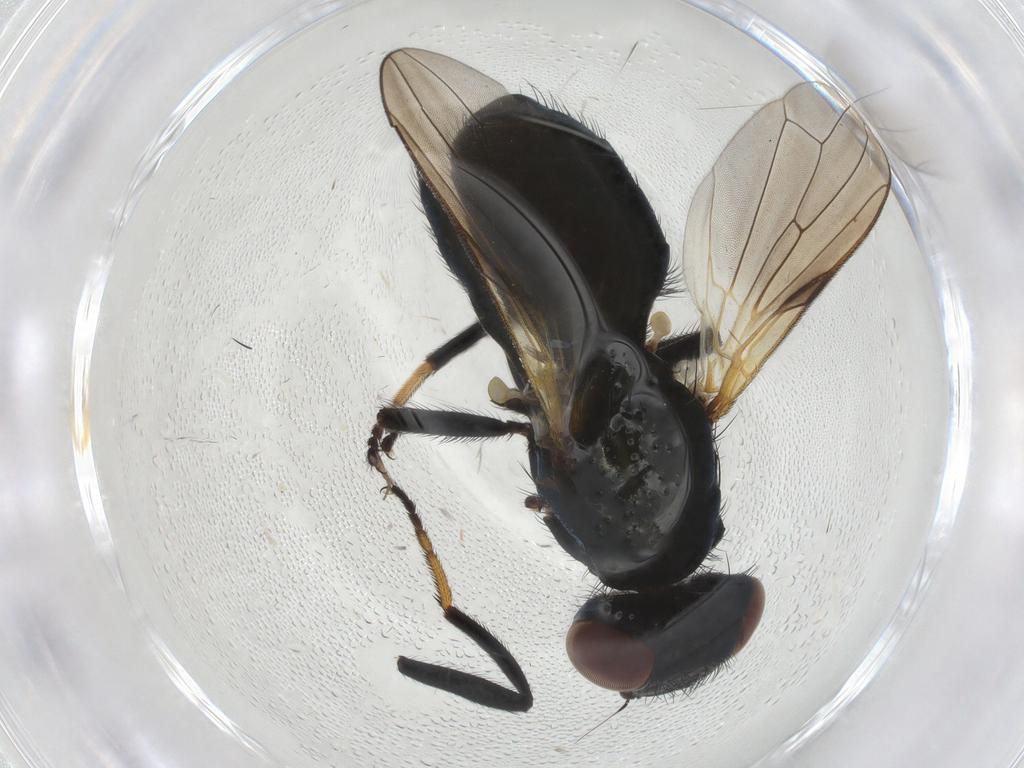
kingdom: Animalia
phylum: Arthropoda
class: Insecta
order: Diptera
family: Ulidiidae
